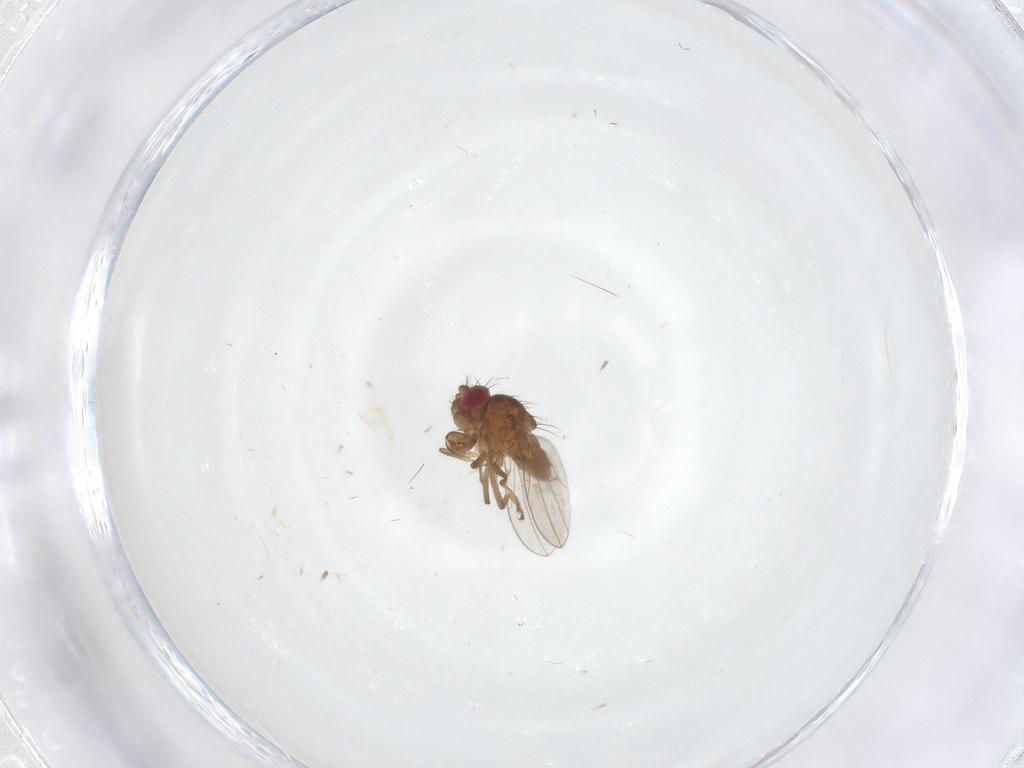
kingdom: Animalia
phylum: Arthropoda
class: Insecta
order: Diptera
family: Ephydridae
